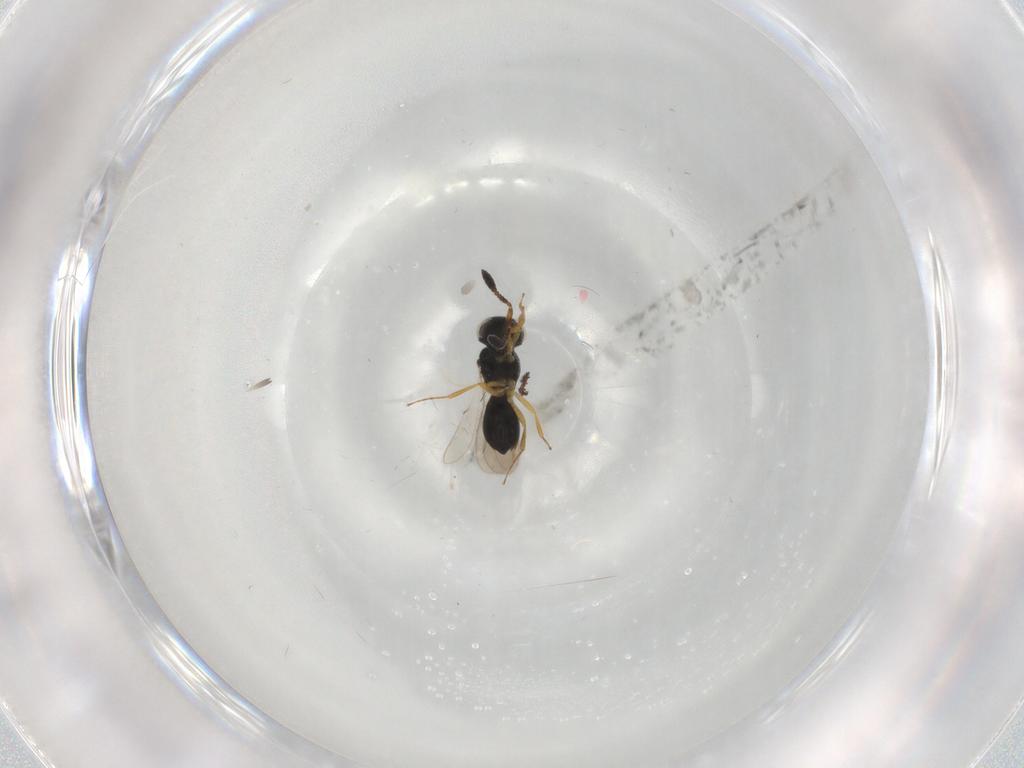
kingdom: Animalia
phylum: Arthropoda
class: Insecta
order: Hymenoptera
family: Scelionidae
